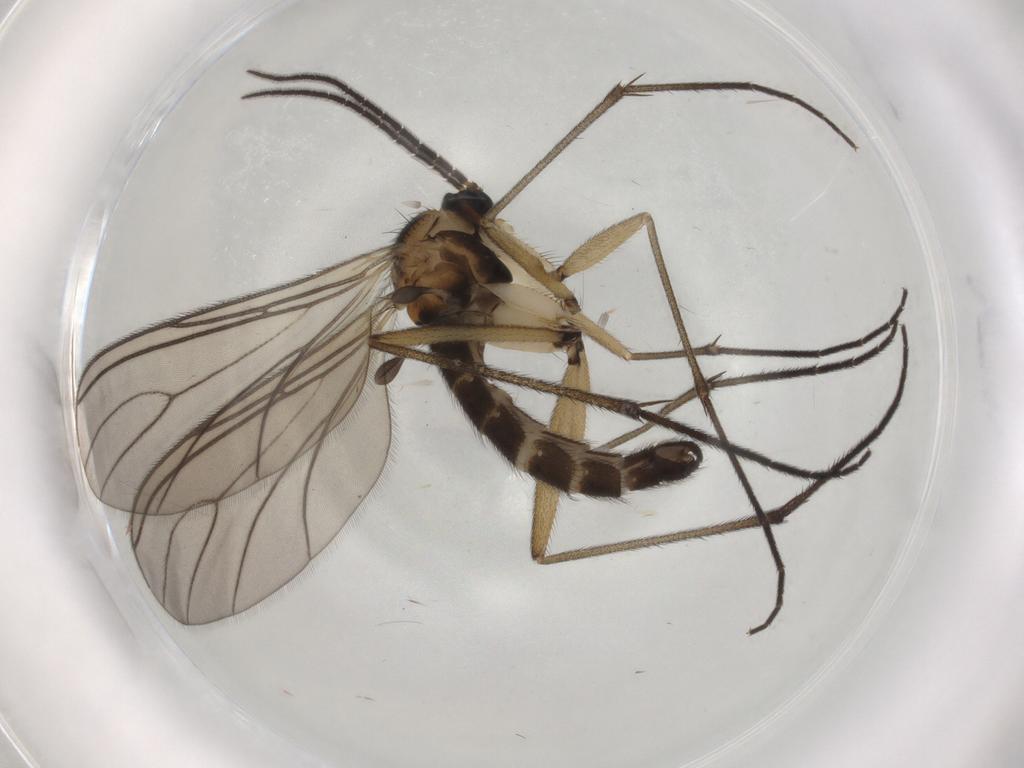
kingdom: Animalia
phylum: Arthropoda
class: Insecta
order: Diptera
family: Sciaridae
